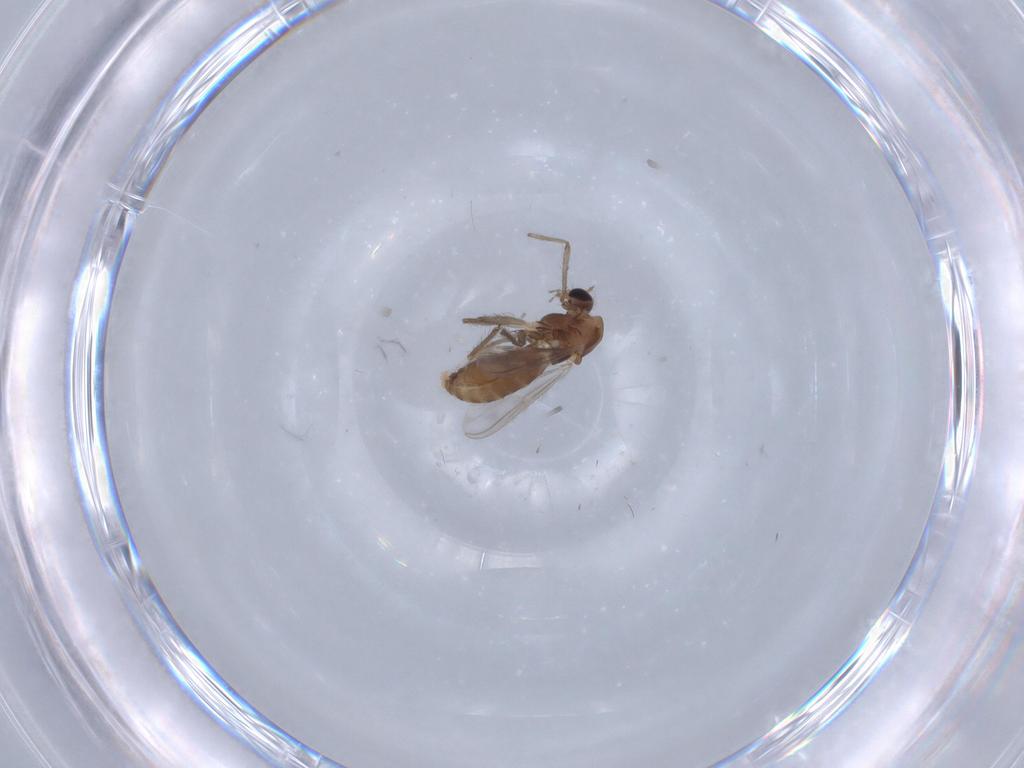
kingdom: Animalia
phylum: Arthropoda
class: Insecta
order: Diptera
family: Chironomidae
